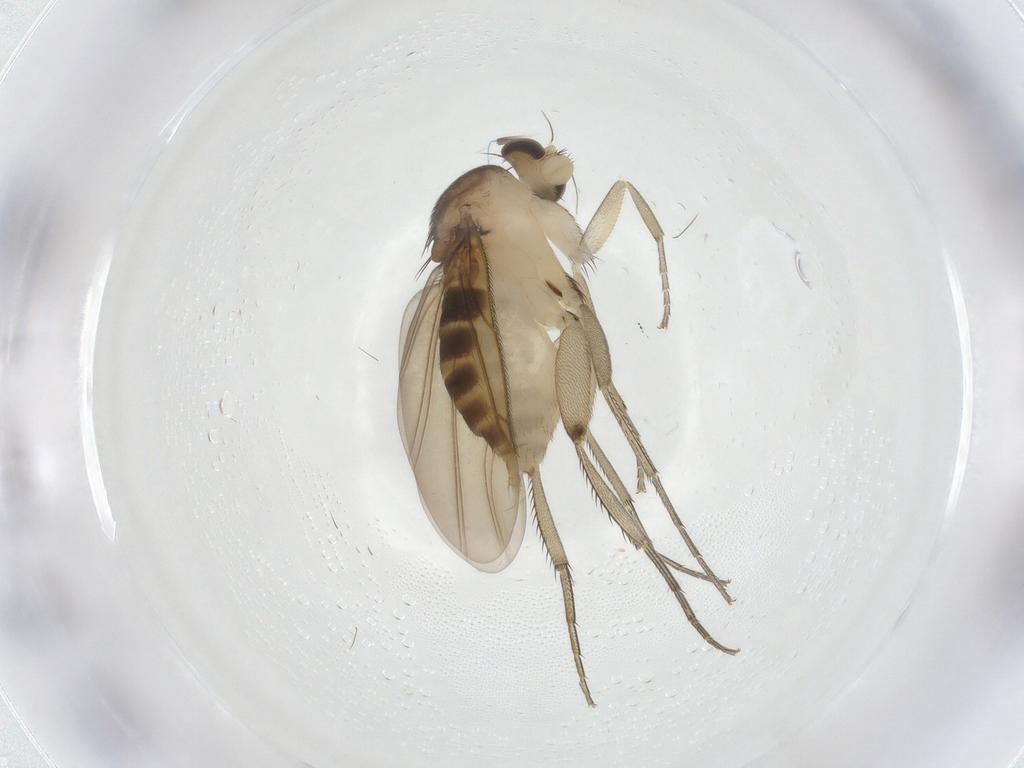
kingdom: Animalia
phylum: Arthropoda
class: Insecta
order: Diptera
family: Phoridae
